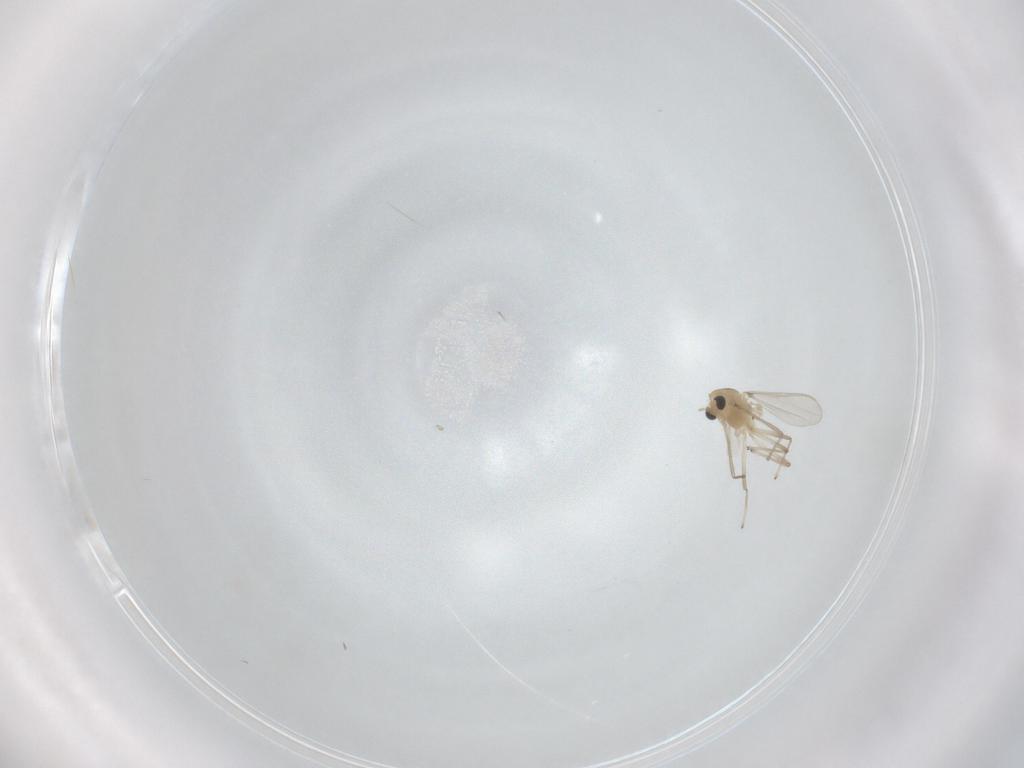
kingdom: Animalia
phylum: Arthropoda
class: Insecta
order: Diptera
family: Chironomidae
